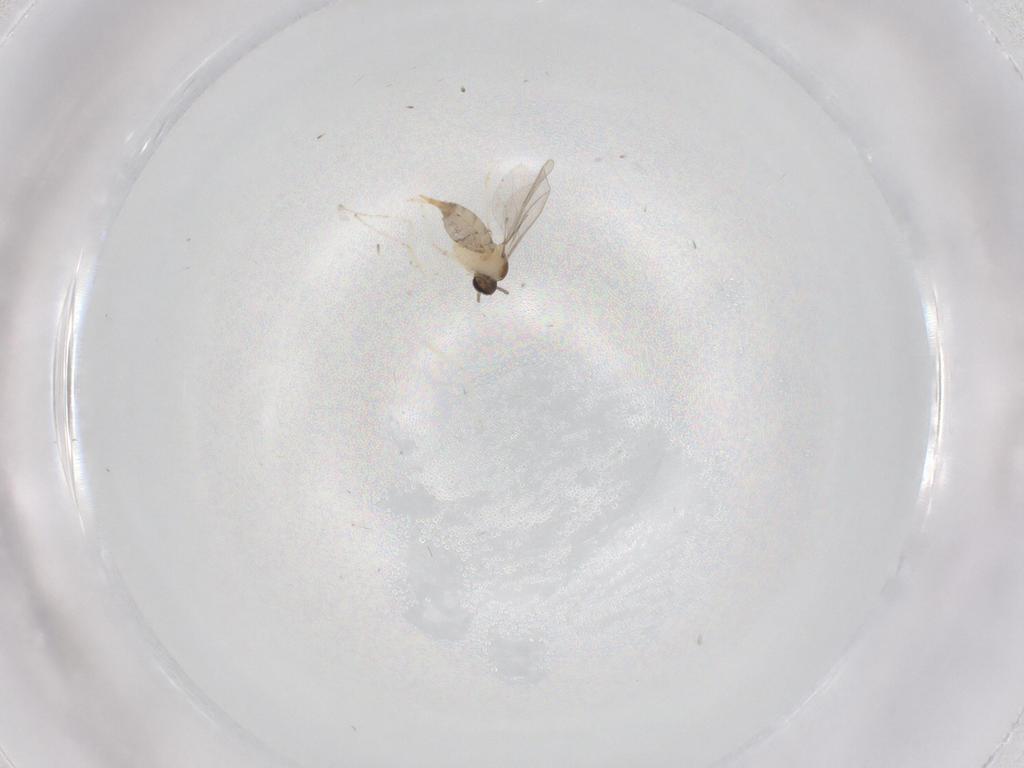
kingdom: Animalia
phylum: Arthropoda
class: Insecta
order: Diptera
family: Cecidomyiidae
